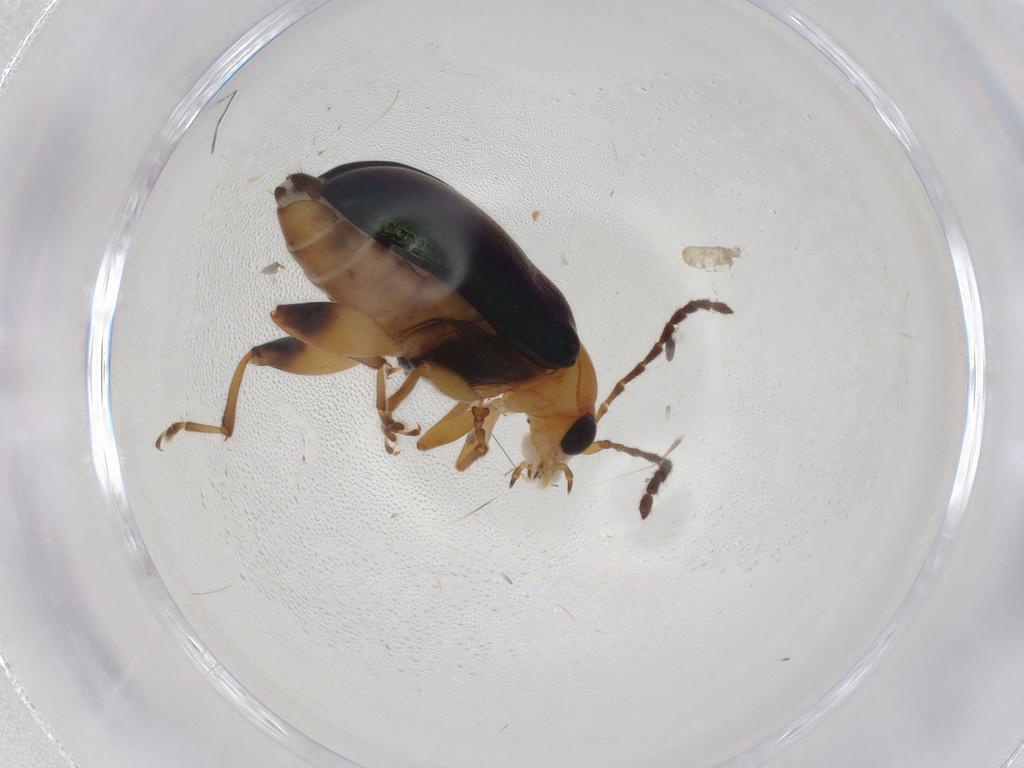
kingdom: Animalia
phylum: Arthropoda
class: Insecta
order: Coleoptera
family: Chrysomelidae
